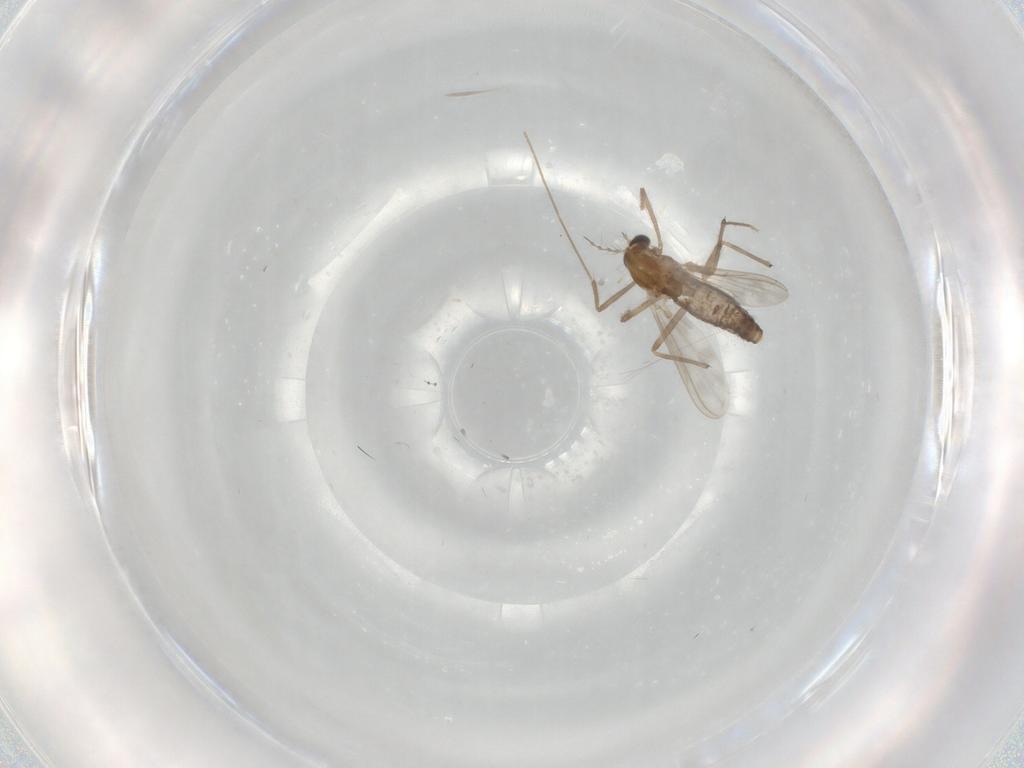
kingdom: Animalia
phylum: Arthropoda
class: Insecta
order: Diptera
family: Chironomidae
